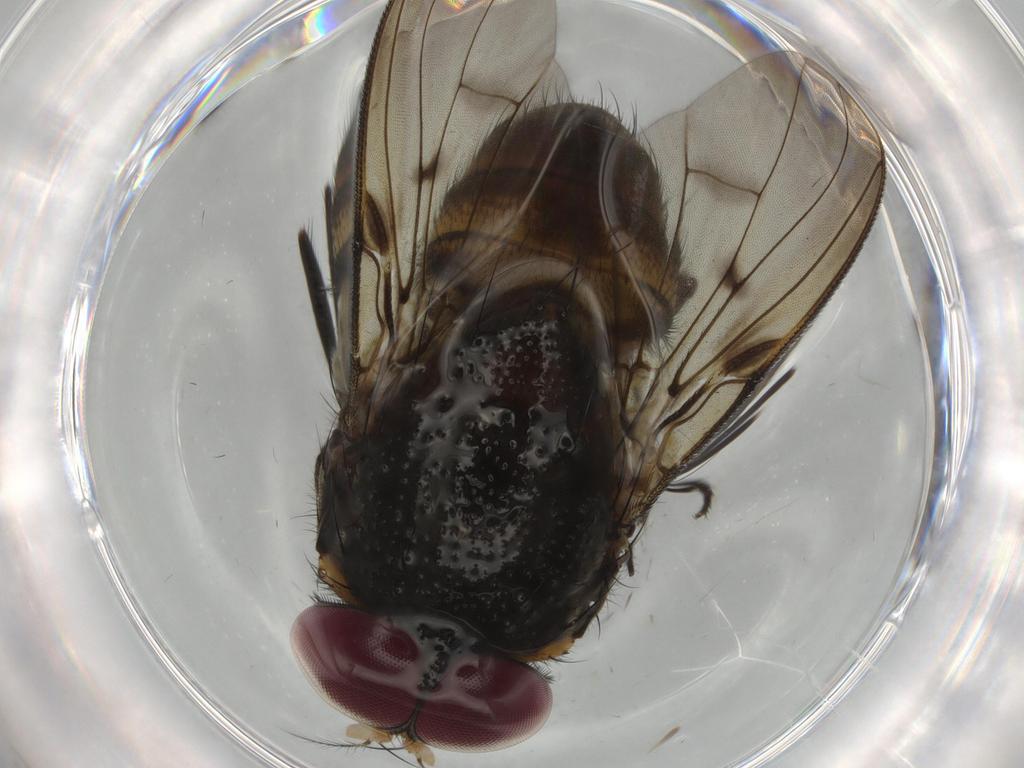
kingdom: Animalia
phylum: Arthropoda
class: Insecta
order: Diptera
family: Muscidae
